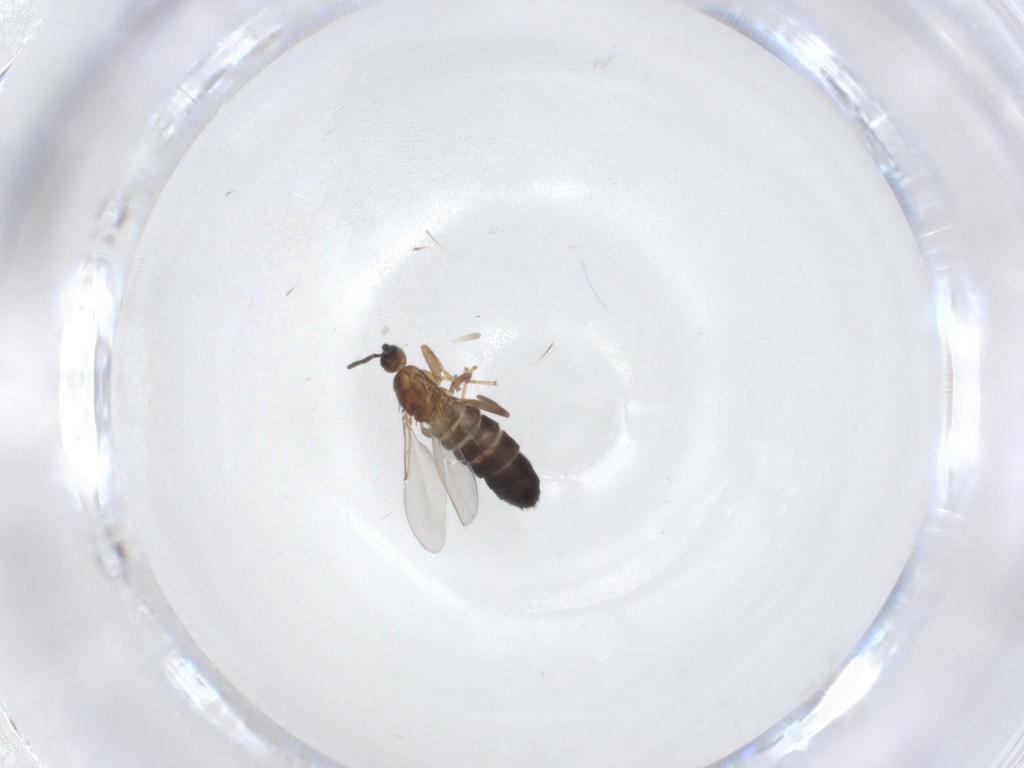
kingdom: Animalia
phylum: Arthropoda
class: Insecta
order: Diptera
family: Scatopsidae
